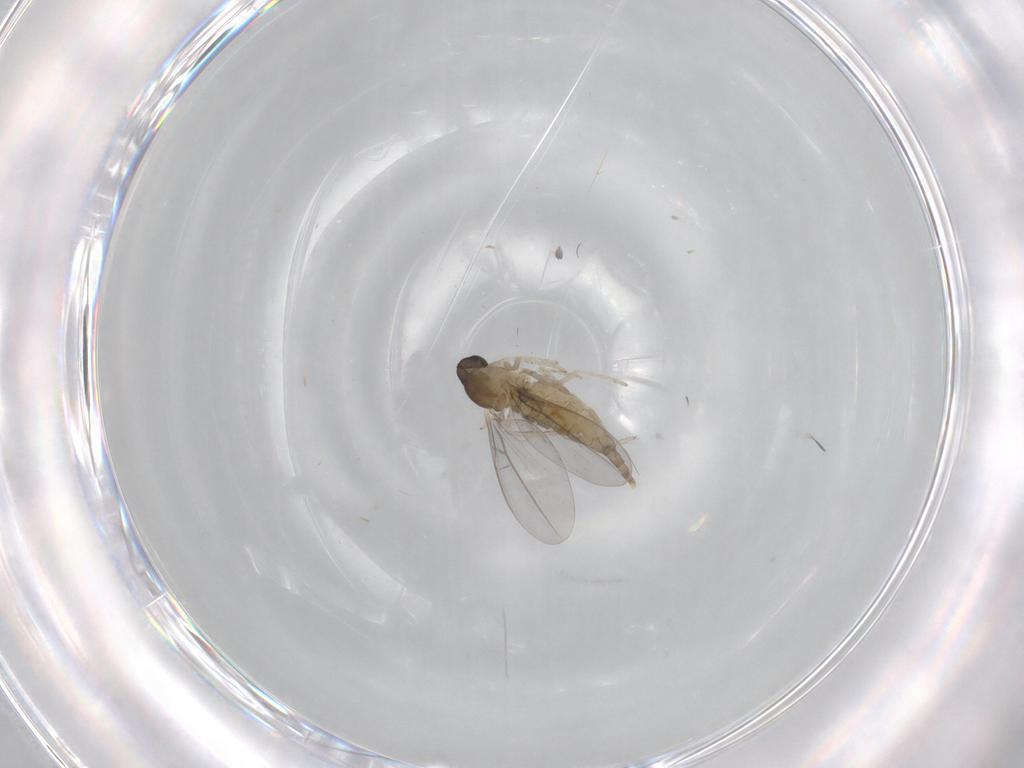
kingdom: Animalia
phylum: Arthropoda
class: Insecta
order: Diptera
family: Cecidomyiidae
